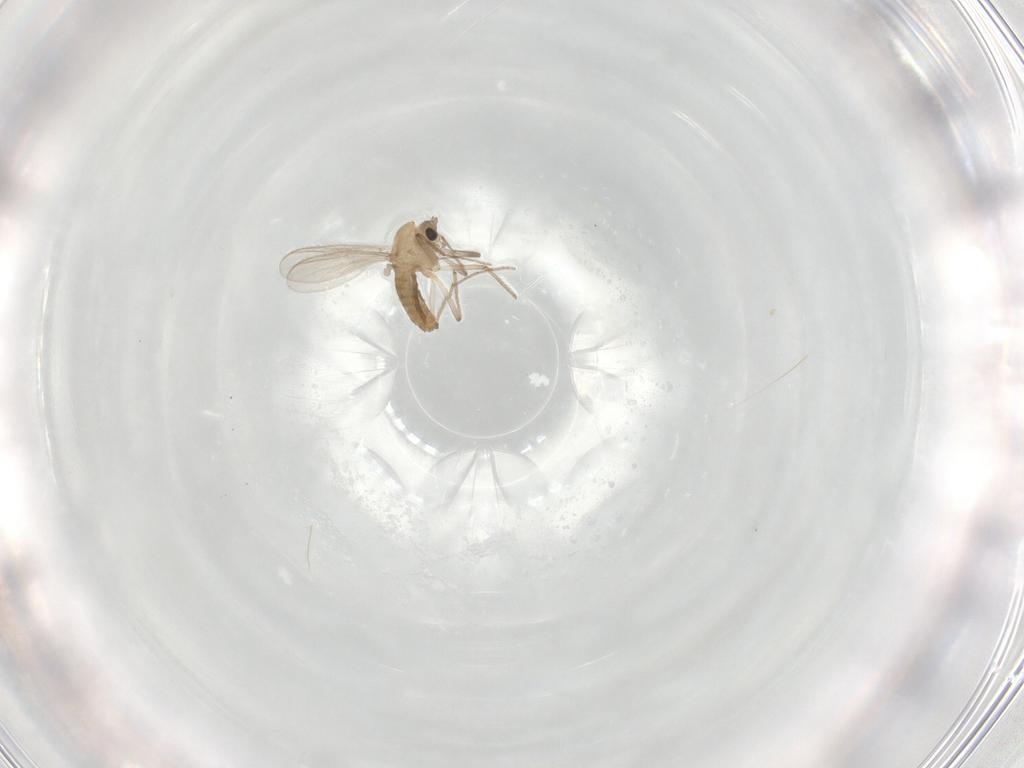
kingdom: Animalia
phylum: Arthropoda
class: Insecta
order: Diptera
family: Chironomidae
